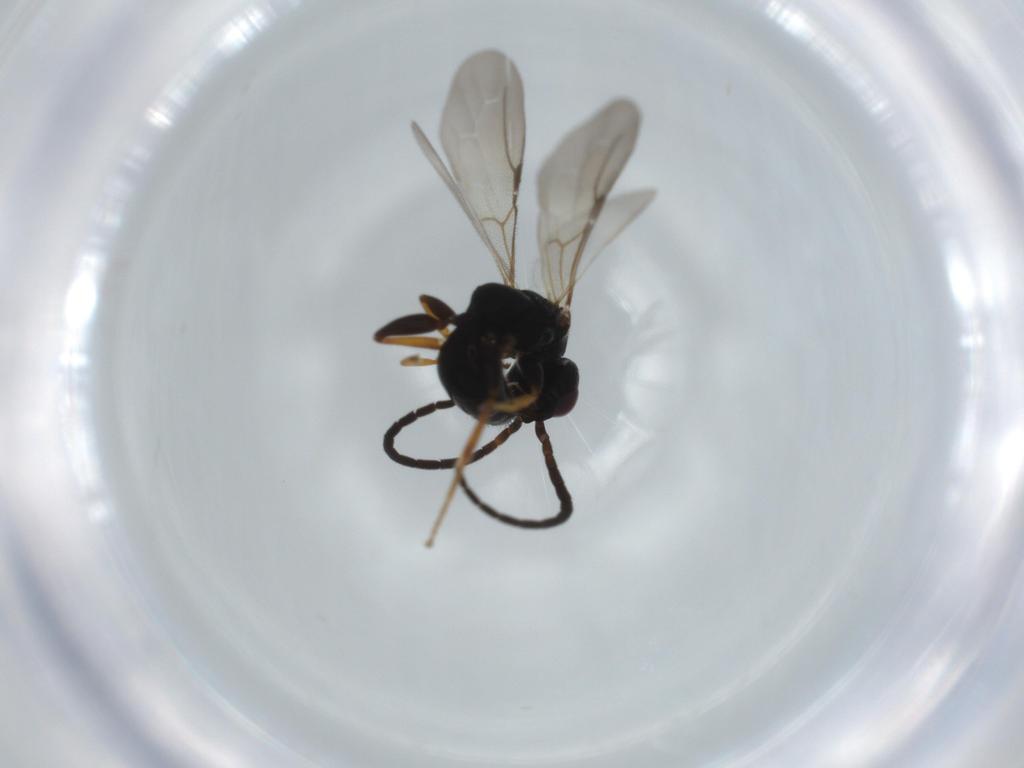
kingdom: Animalia
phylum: Arthropoda
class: Insecta
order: Hymenoptera
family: Bethylidae
